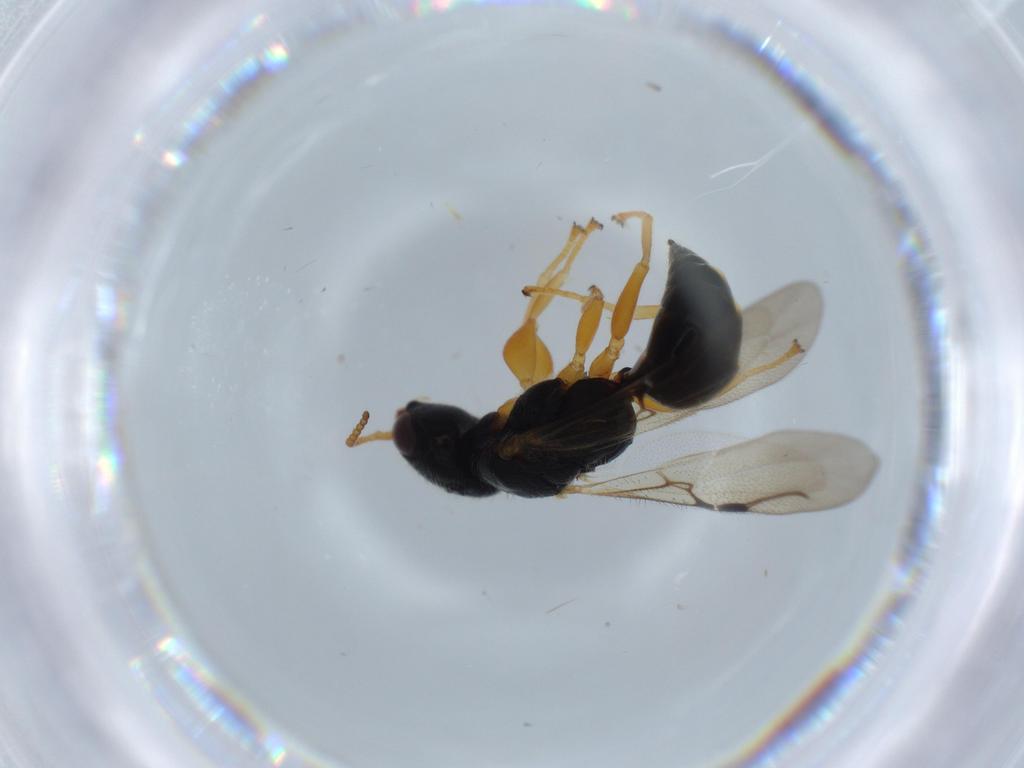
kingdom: Animalia
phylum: Arthropoda
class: Insecta
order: Hymenoptera
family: Bethylidae
